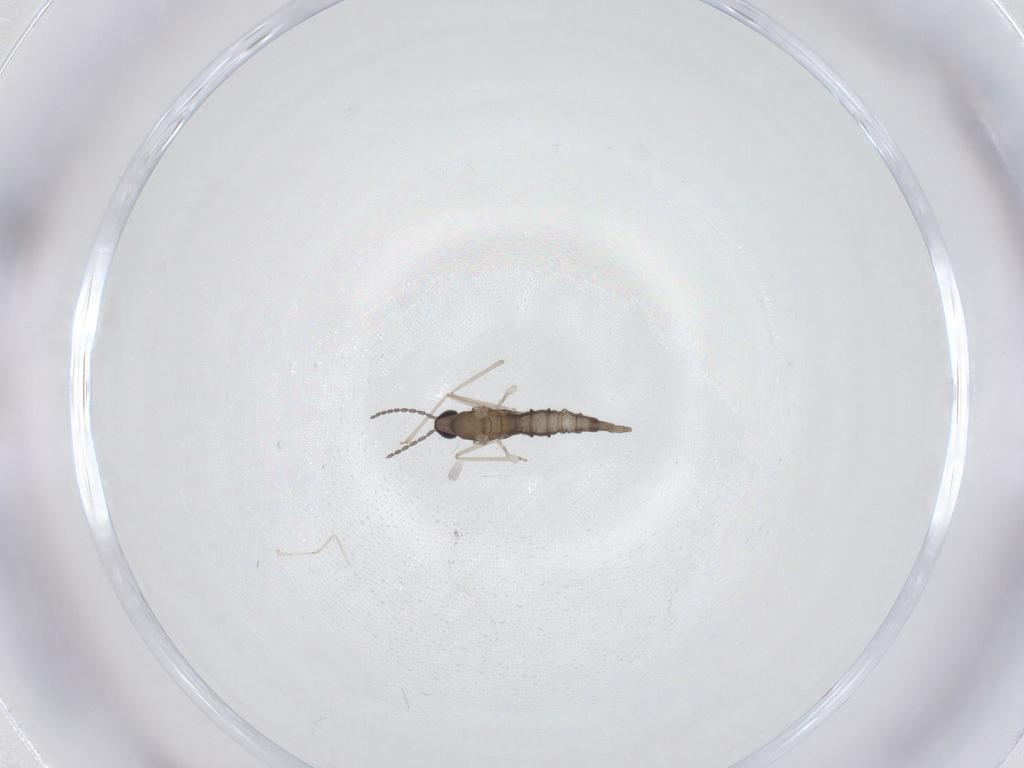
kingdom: Animalia
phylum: Arthropoda
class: Insecta
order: Diptera
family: Cecidomyiidae
